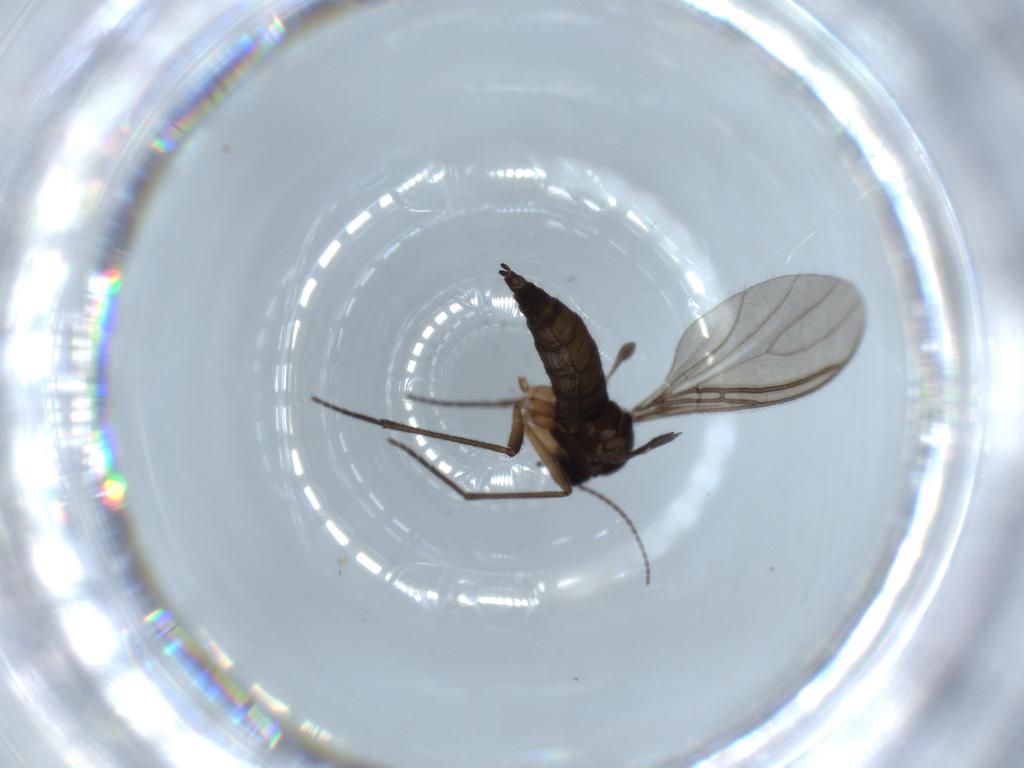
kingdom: Animalia
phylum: Arthropoda
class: Insecta
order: Diptera
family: Sciaridae
